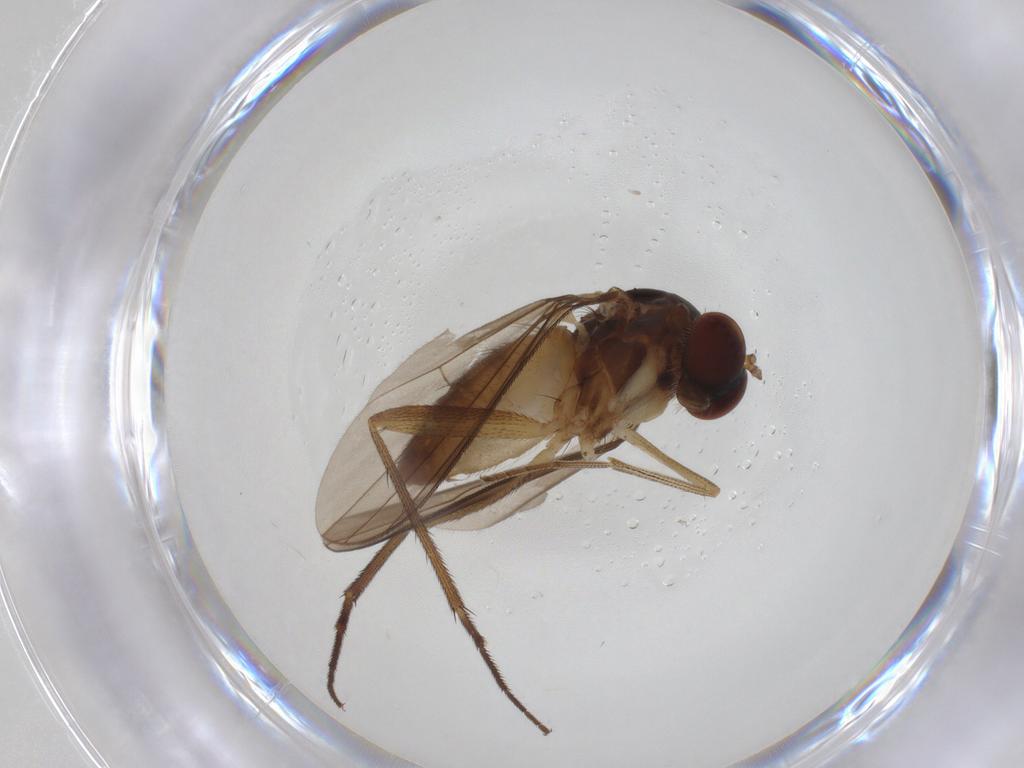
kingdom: Animalia
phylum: Arthropoda
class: Insecta
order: Diptera
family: Dolichopodidae
